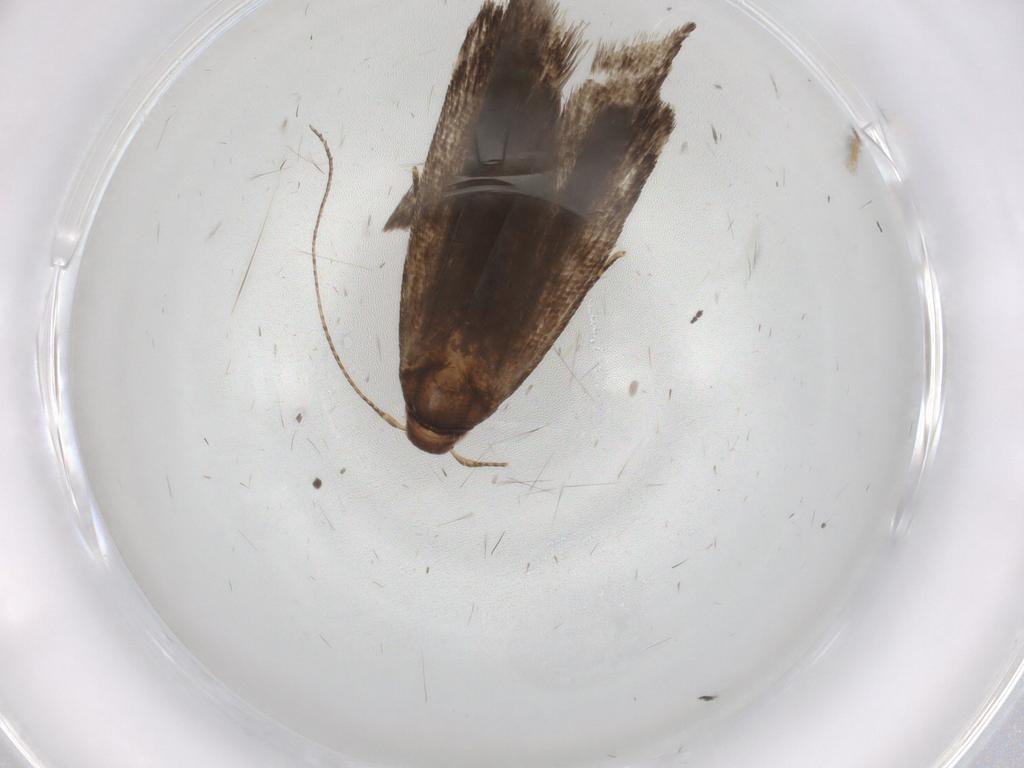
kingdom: Animalia
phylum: Arthropoda
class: Insecta
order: Lepidoptera
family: Gelechiidae
